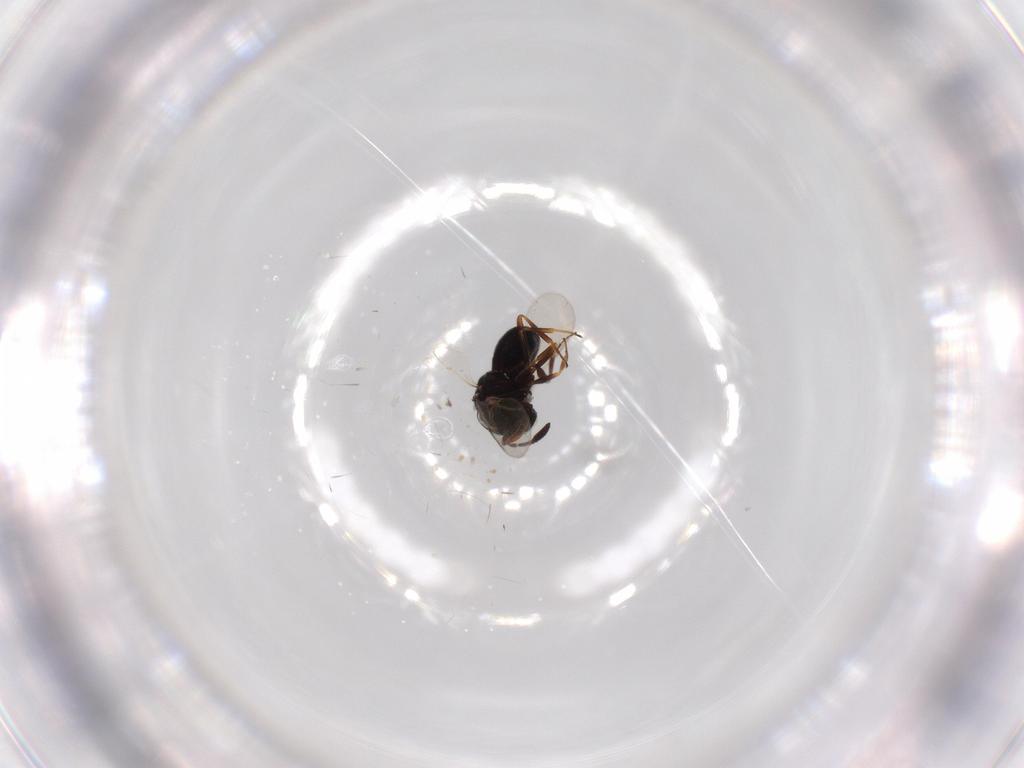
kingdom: Animalia
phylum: Arthropoda
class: Insecta
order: Hymenoptera
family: Scelionidae
